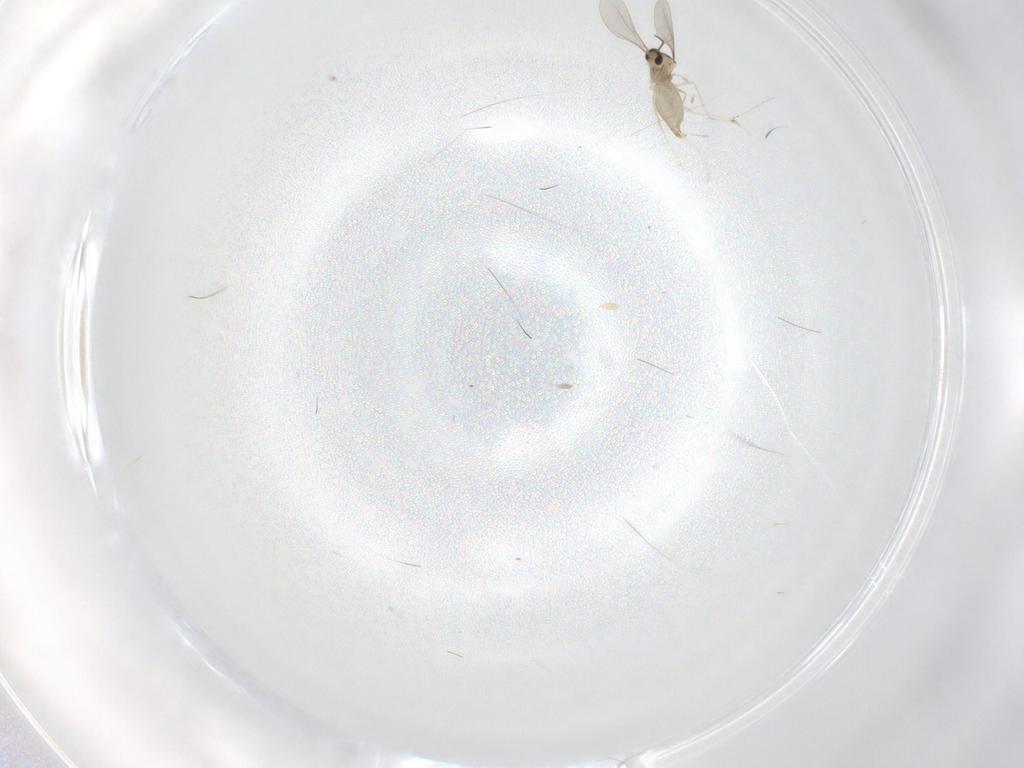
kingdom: Animalia
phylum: Arthropoda
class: Insecta
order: Diptera
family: Cecidomyiidae
